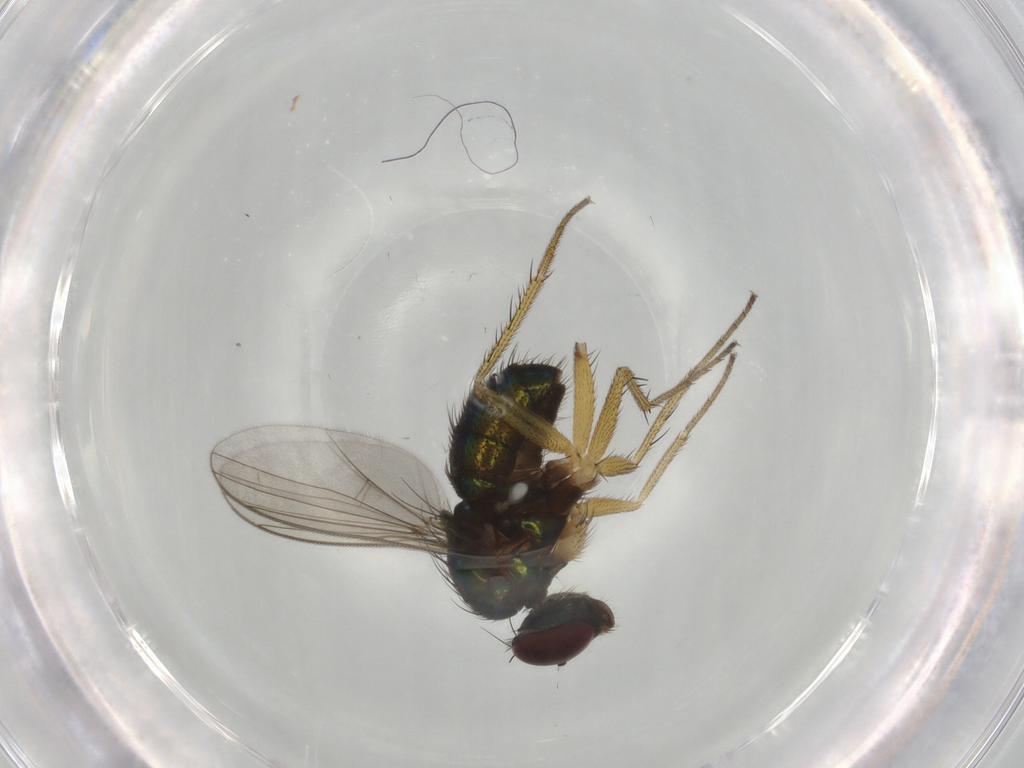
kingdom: Animalia
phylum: Arthropoda
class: Insecta
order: Diptera
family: Dolichopodidae
